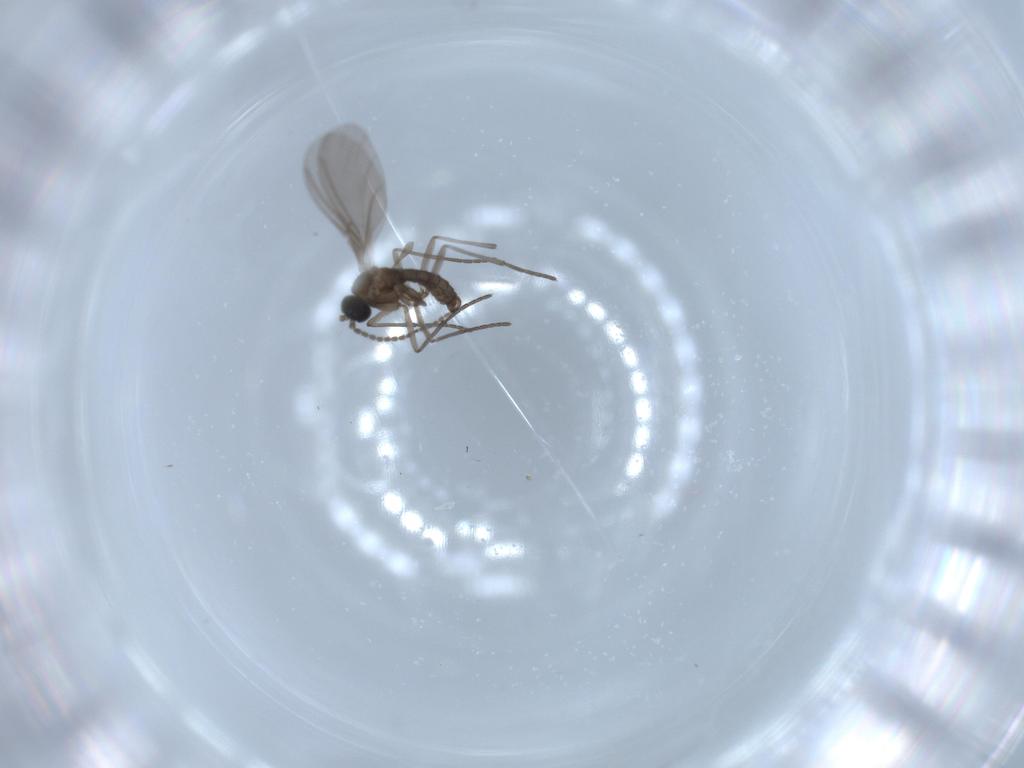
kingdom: Animalia
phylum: Arthropoda
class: Insecta
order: Diptera
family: Sciaridae
